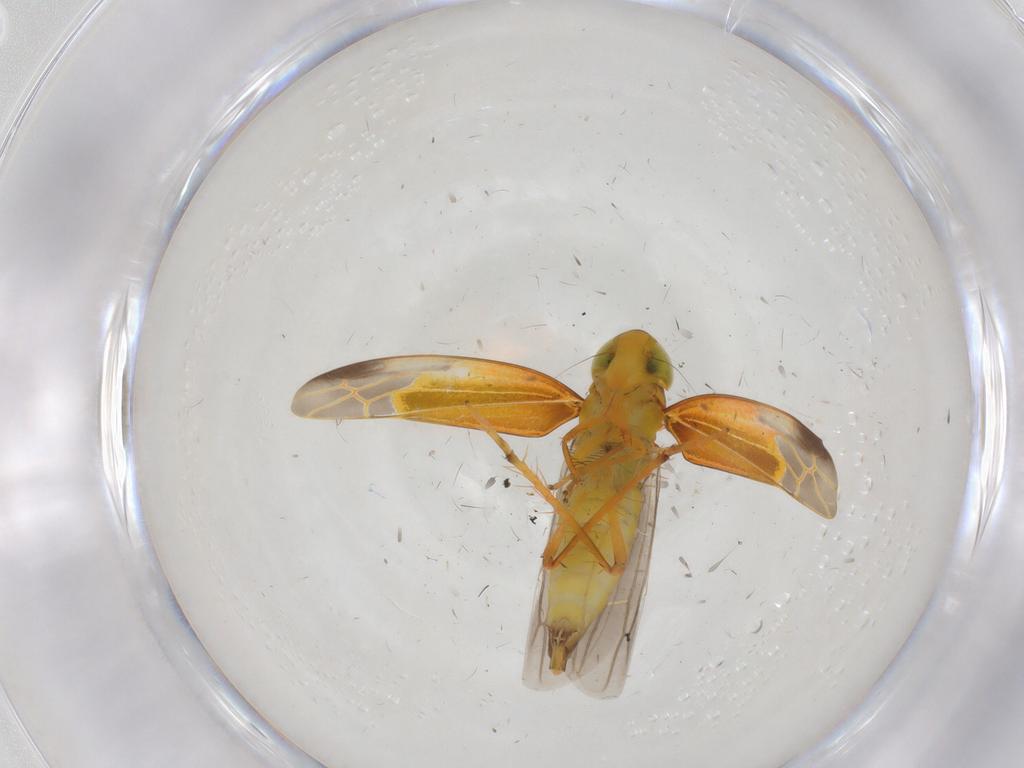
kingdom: Animalia
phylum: Arthropoda
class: Insecta
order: Hemiptera
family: Cicadellidae
